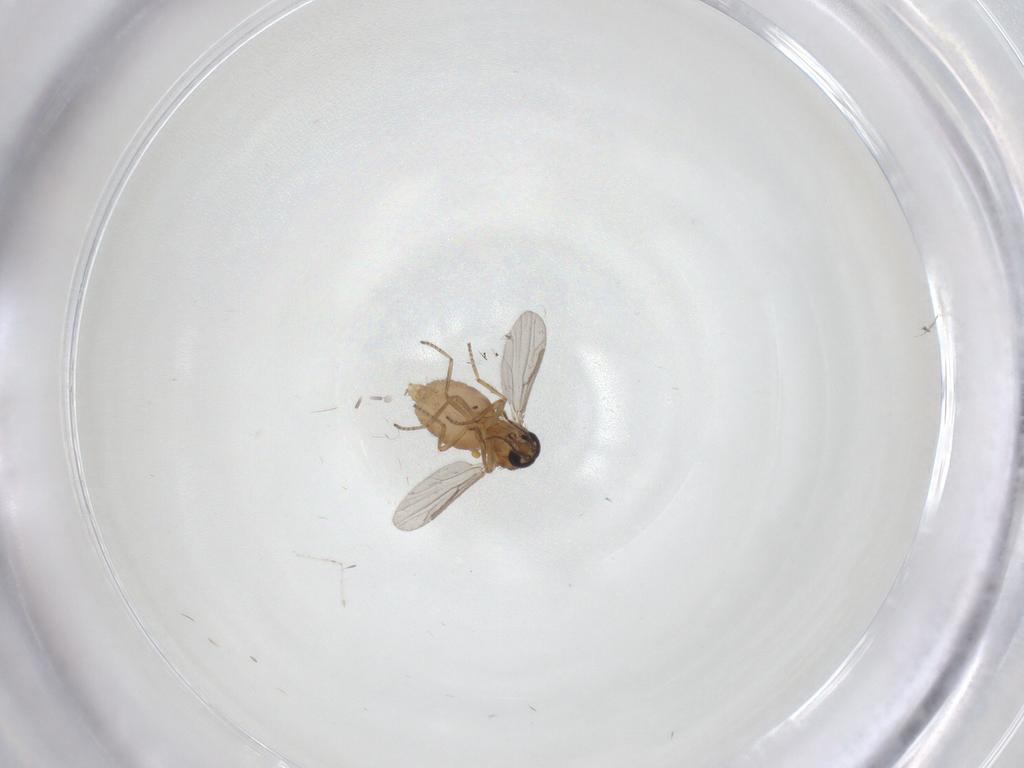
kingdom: Animalia
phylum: Arthropoda
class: Insecta
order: Diptera
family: Ceratopogonidae
